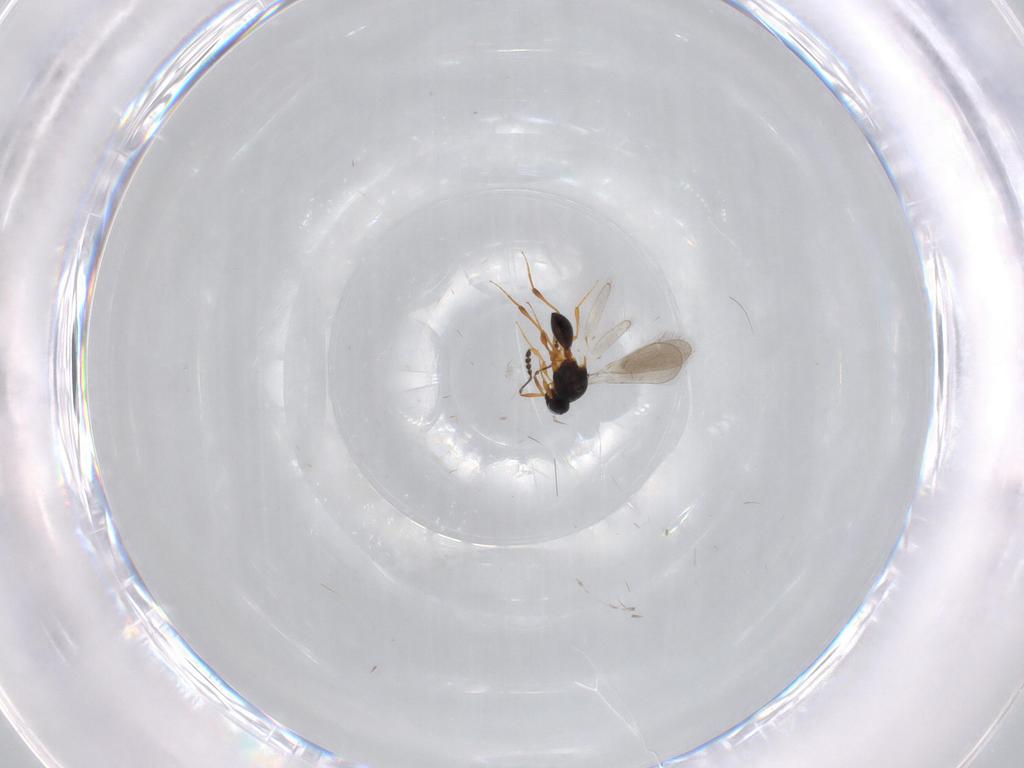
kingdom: Animalia
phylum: Arthropoda
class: Insecta
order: Hymenoptera
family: Platygastridae
